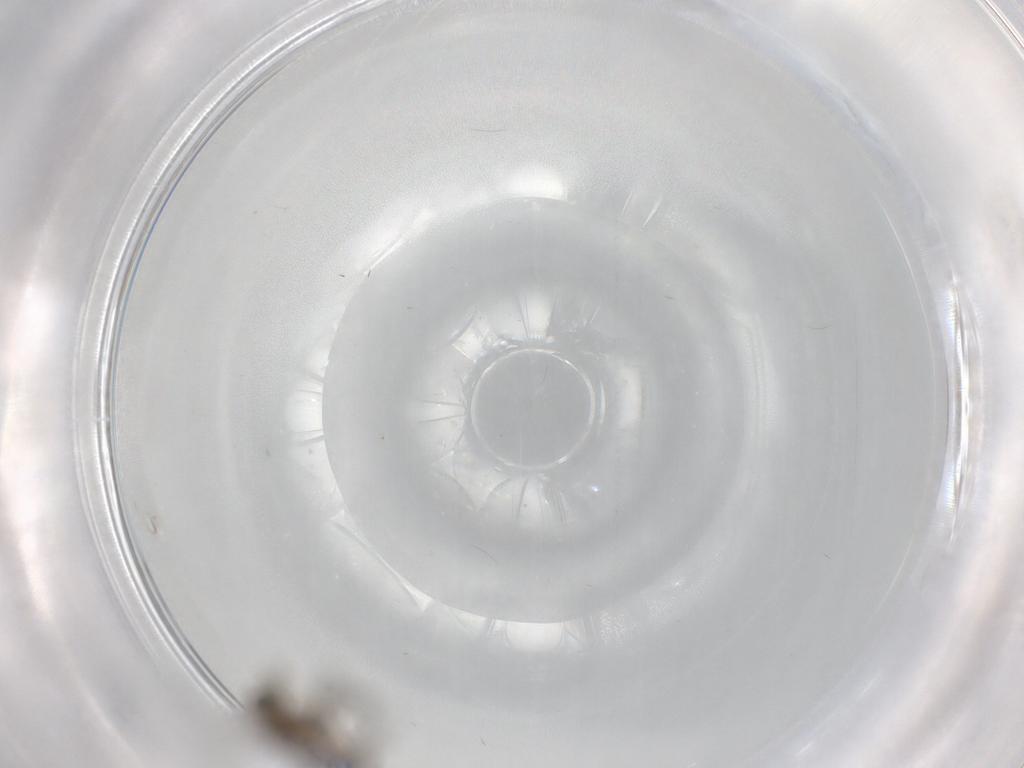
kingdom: Animalia
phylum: Arthropoda
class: Insecta
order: Diptera
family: Chironomidae
